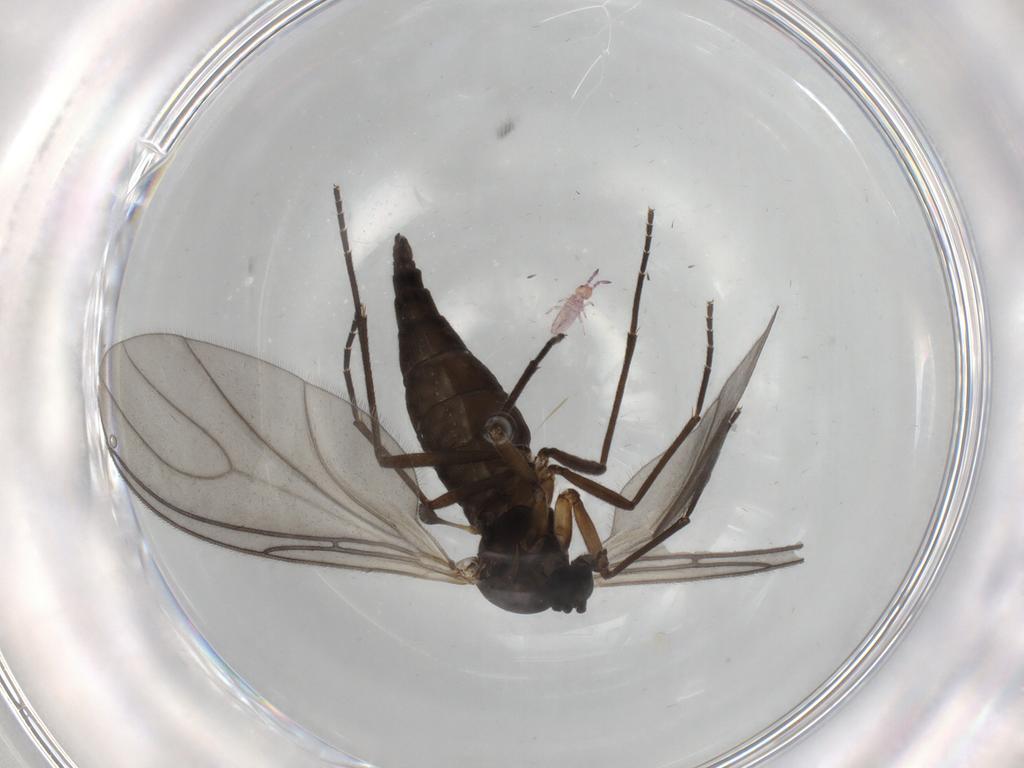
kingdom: Animalia
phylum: Arthropoda
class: Insecta
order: Diptera
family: Sciaridae
